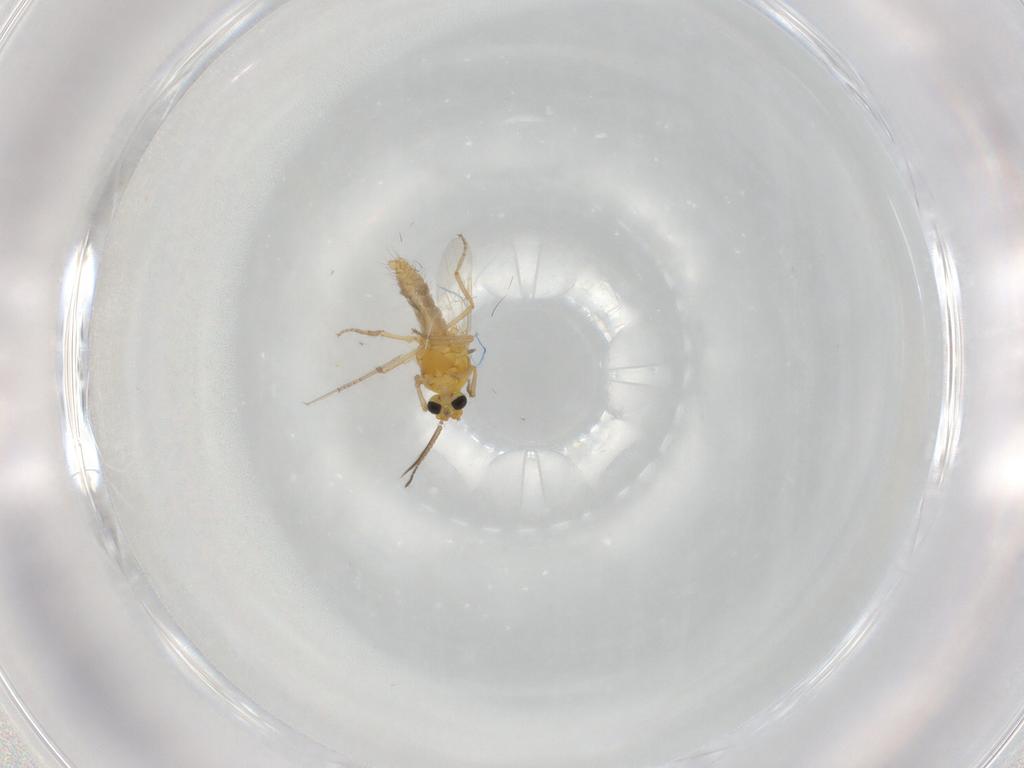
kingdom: Animalia
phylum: Arthropoda
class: Insecta
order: Diptera
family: Ceratopogonidae
